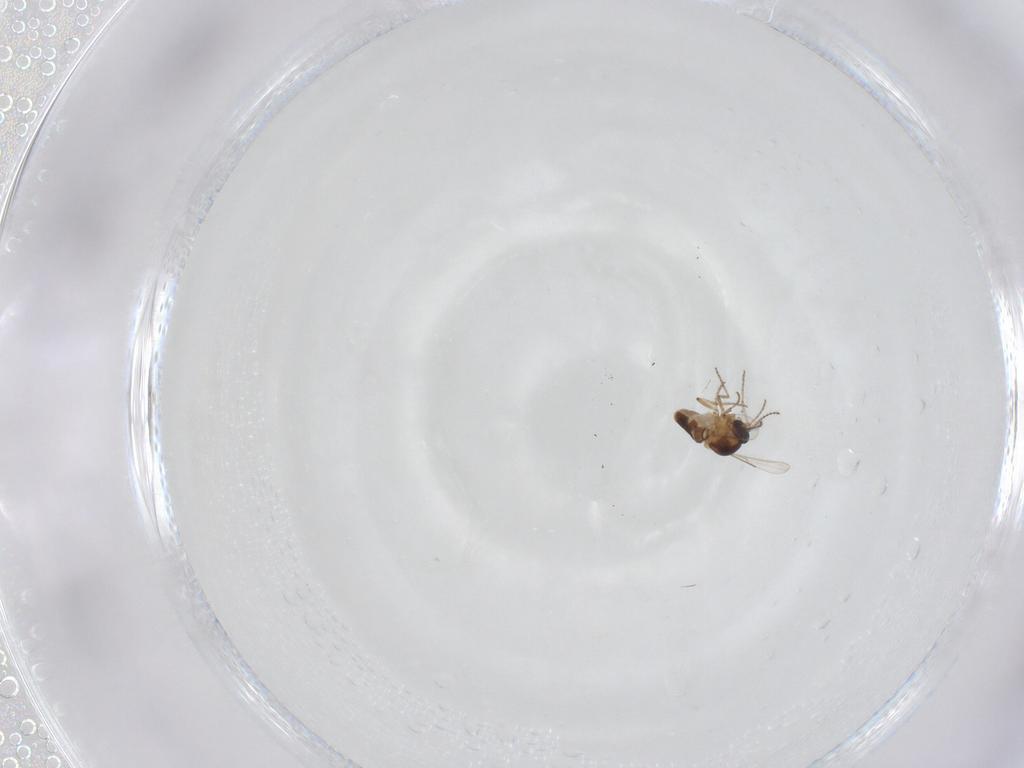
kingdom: Animalia
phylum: Arthropoda
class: Insecta
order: Diptera
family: Ceratopogonidae
